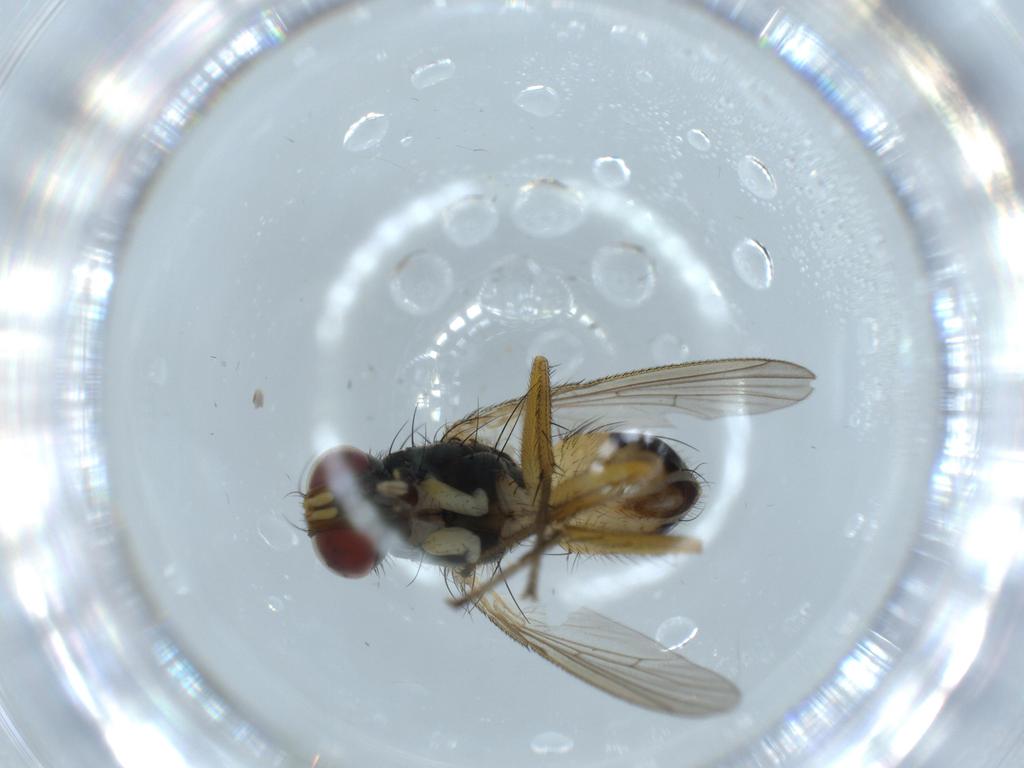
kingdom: Animalia
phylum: Arthropoda
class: Insecta
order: Diptera
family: Muscidae
